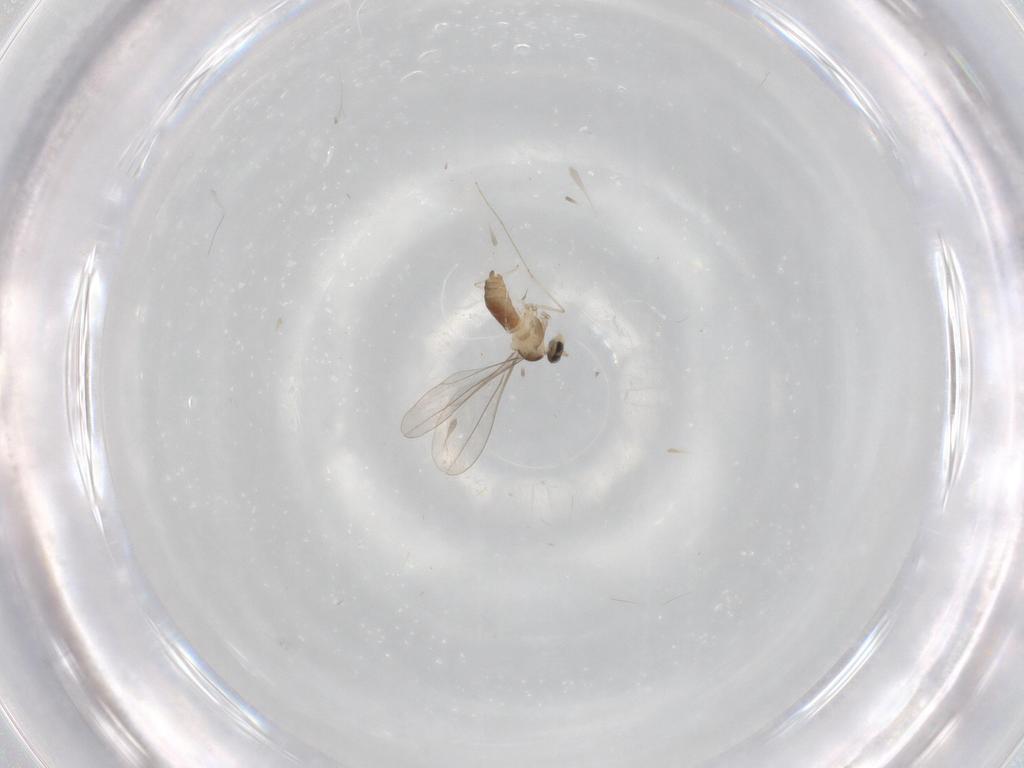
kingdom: Animalia
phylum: Arthropoda
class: Insecta
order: Diptera
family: Cecidomyiidae
